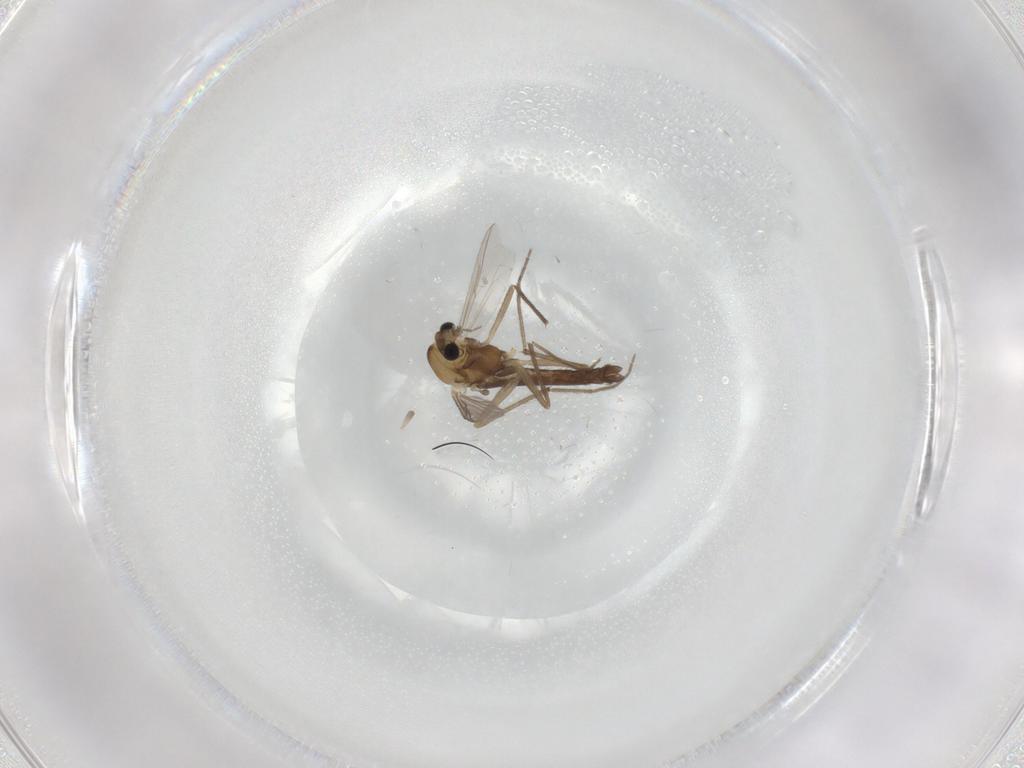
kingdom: Animalia
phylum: Arthropoda
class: Insecta
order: Diptera
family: Chironomidae
